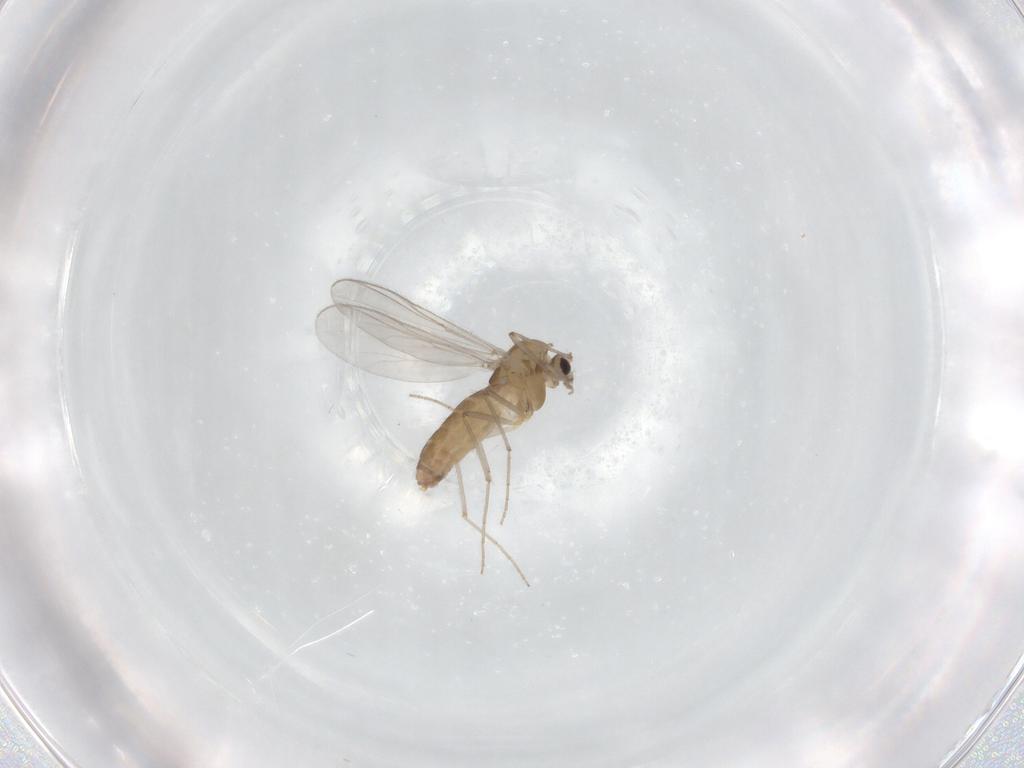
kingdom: Animalia
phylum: Arthropoda
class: Insecta
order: Diptera
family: Chironomidae
